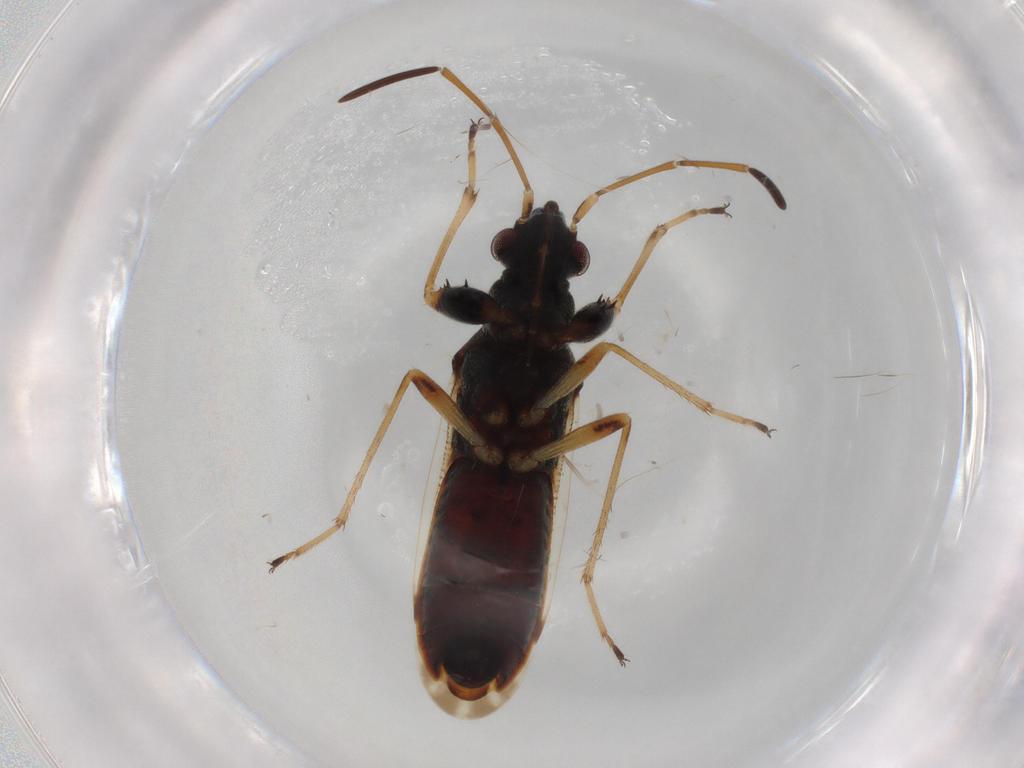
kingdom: Animalia
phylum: Arthropoda
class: Insecta
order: Hemiptera
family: Rhyparochromidae
